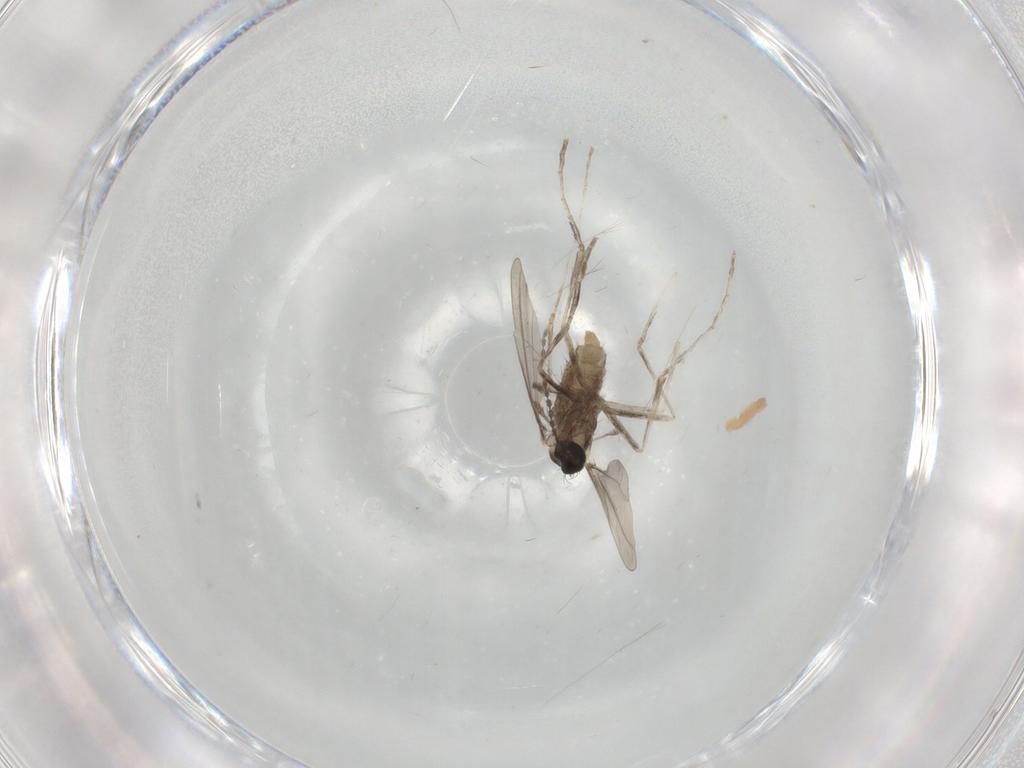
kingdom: Animalia
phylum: Arthropoda
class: Insecta
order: Diptera
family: Cecidomyiidae
